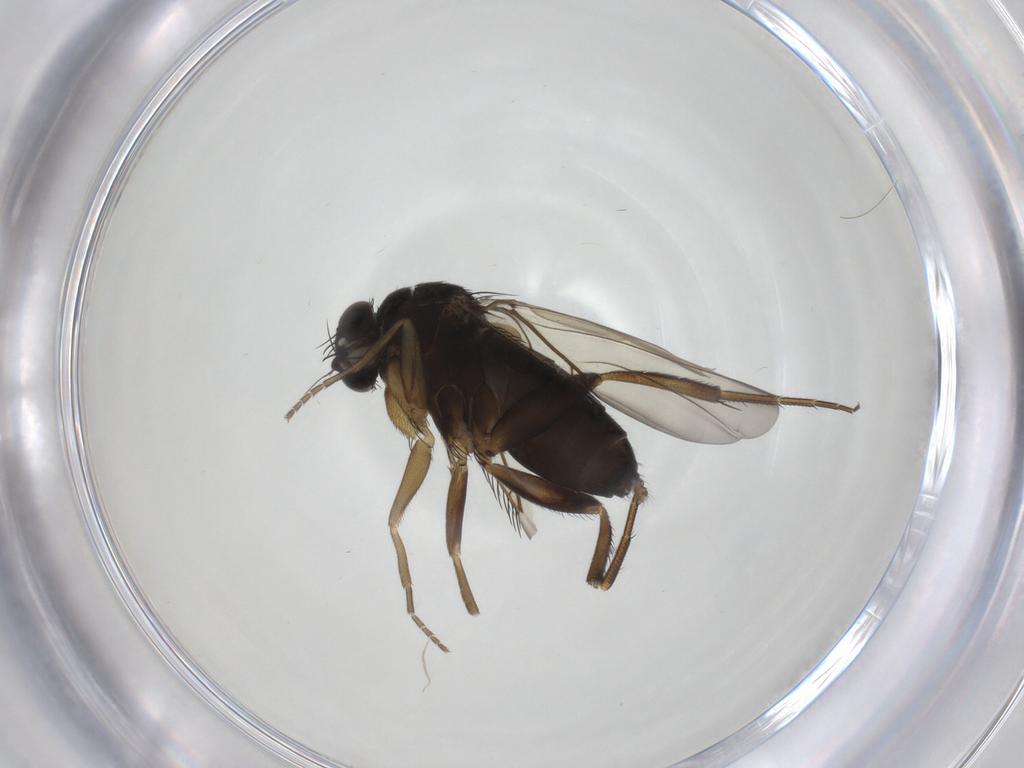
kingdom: Animalia
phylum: Arthropoda
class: Insecta
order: Diptera
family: Phoridae
